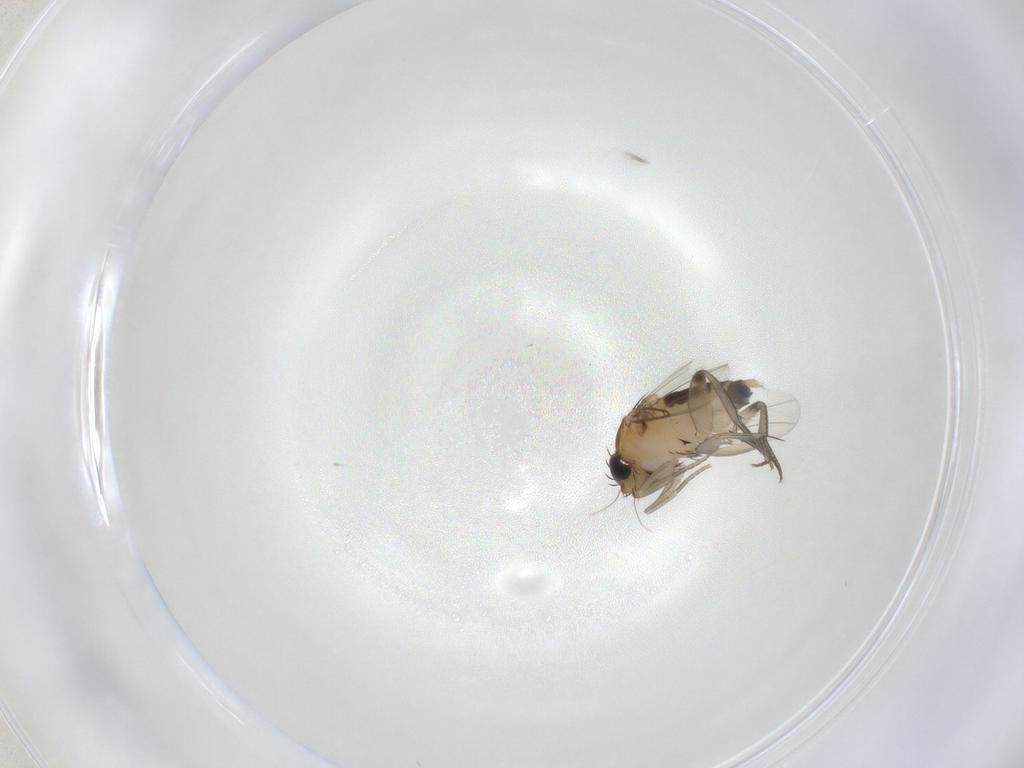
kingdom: Animalia
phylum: Arthropoda
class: Insecta
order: Diptera
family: Phoridae
